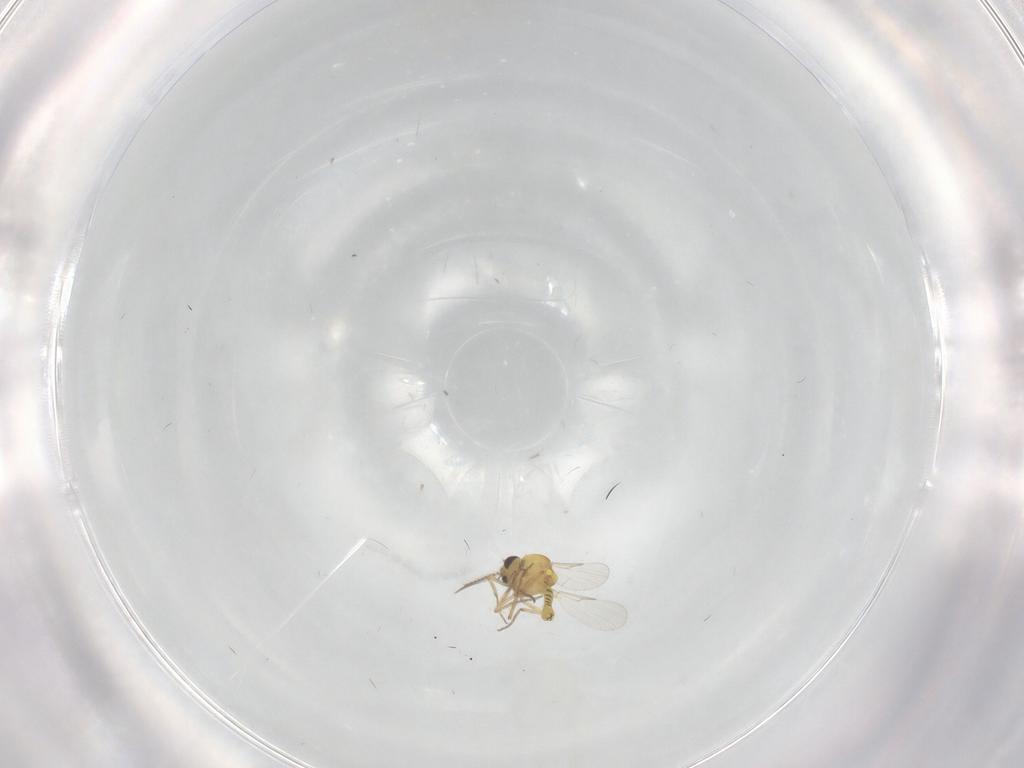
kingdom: Animalia
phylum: Arthropoda
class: Insecta
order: Diptera
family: Ceratopogonidae
